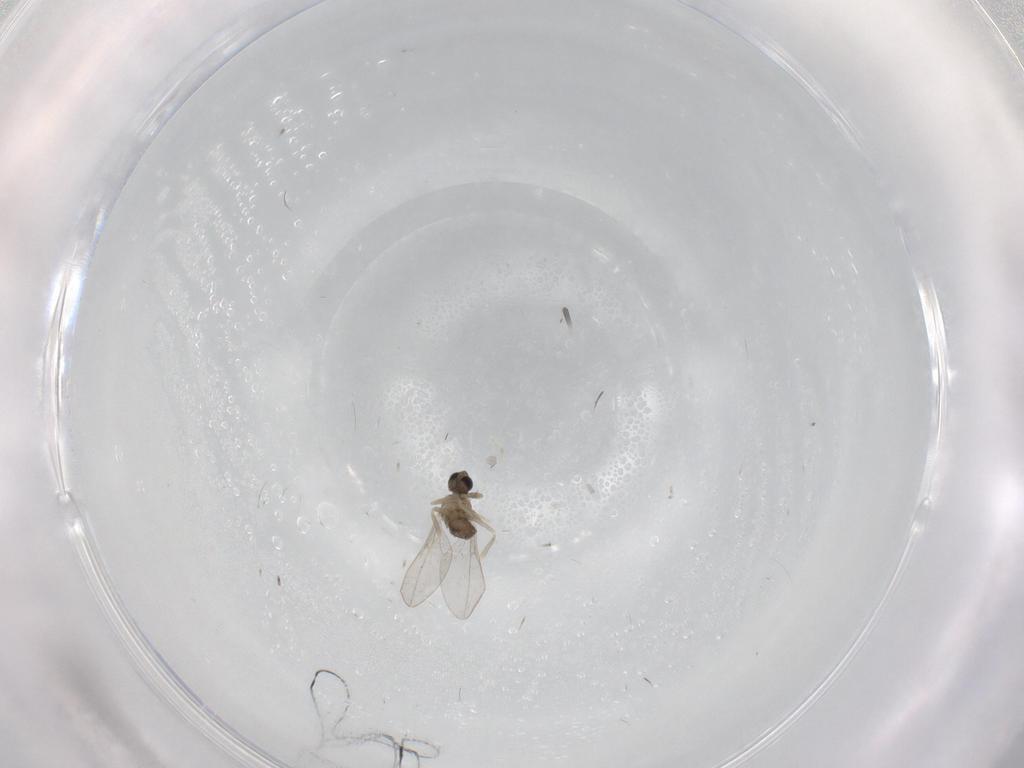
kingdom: Animalia
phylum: Arthropoda
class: Insecta
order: Diptera
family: Cecidomyiidae
